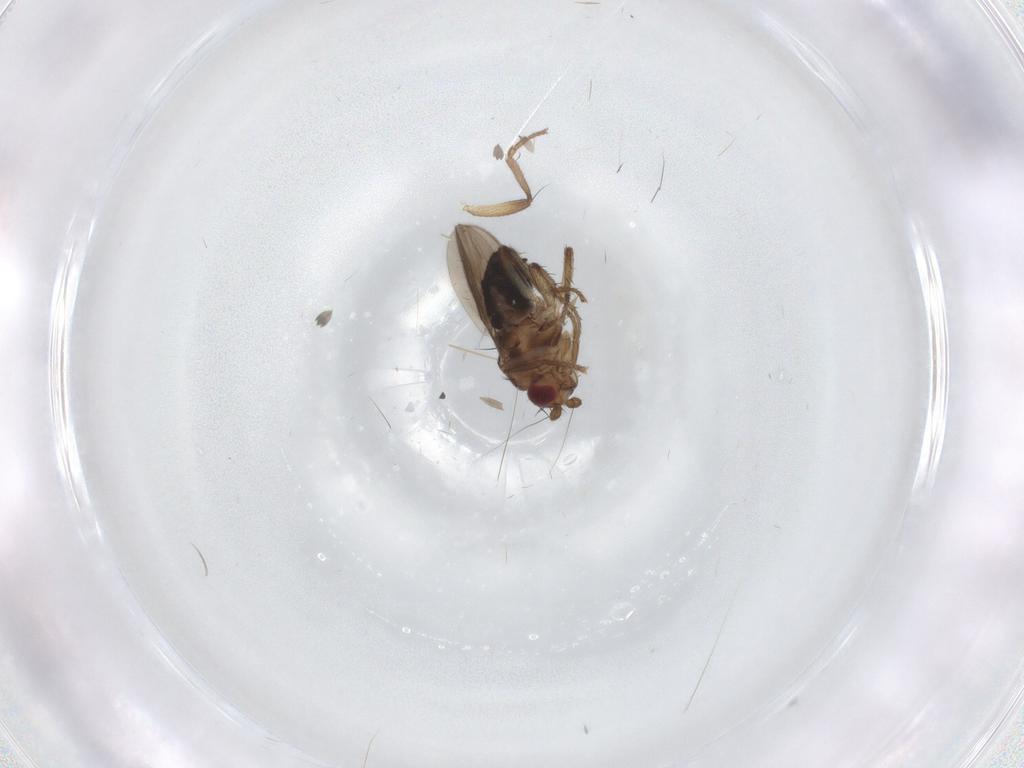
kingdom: Animalia
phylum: Arthropoda
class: Insecta
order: Diptera
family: Sphaeroceridae
